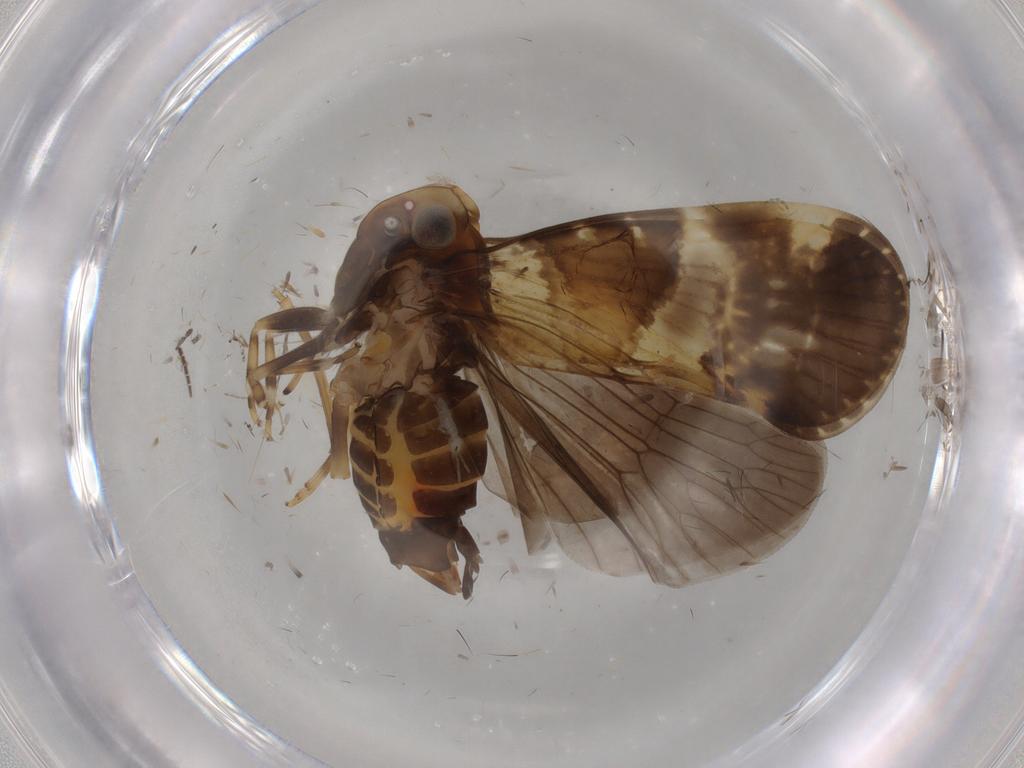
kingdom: Animalia
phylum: Arthropoda
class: Insecta
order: Hemiptera
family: Cixiidae
